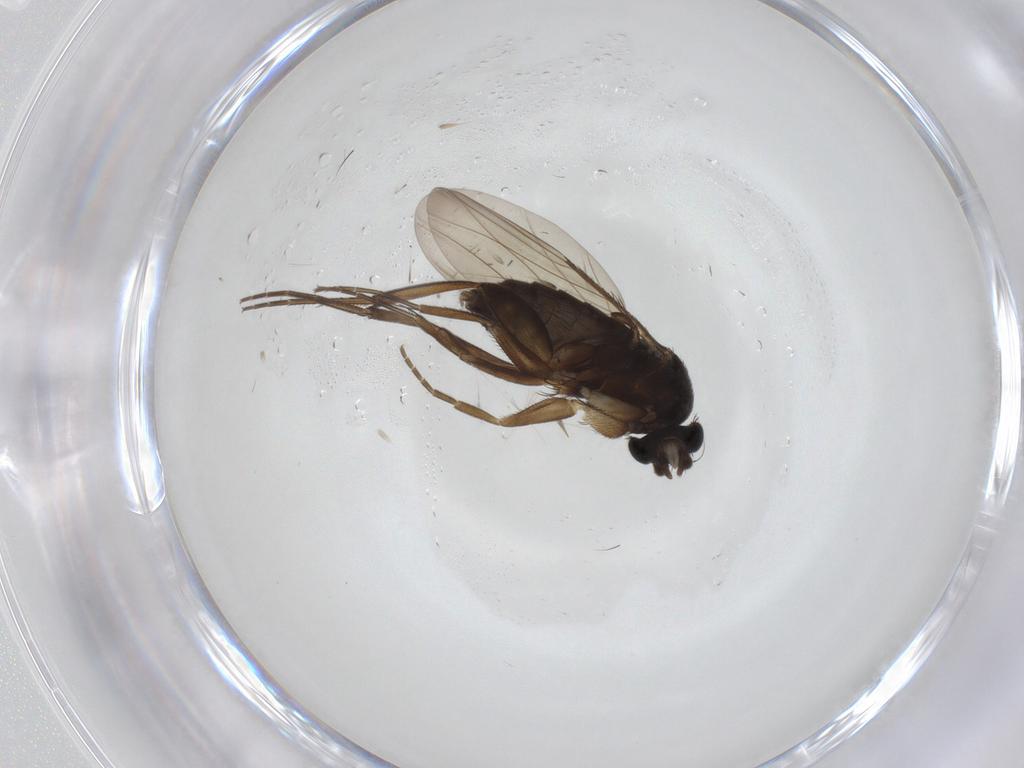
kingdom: Animalia
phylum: Arthropoda
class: Insecta
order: Diptera
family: Phoridae
